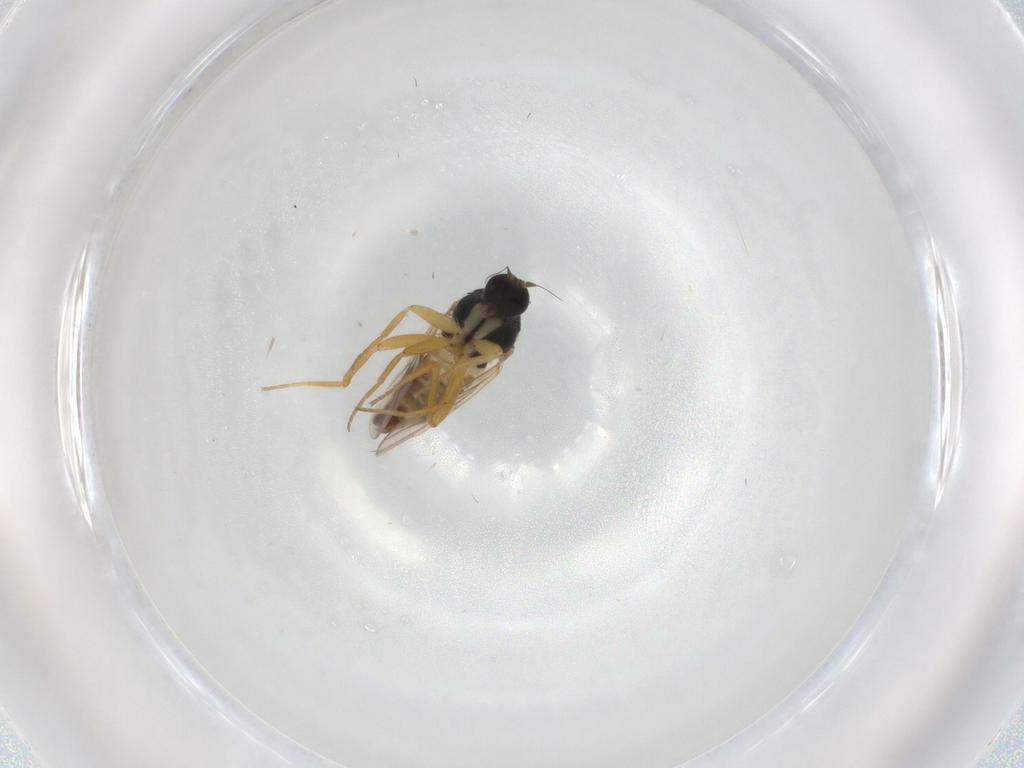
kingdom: Animalia
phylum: Arthropoda
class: Insecta
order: Diptera
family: Hybotidae
